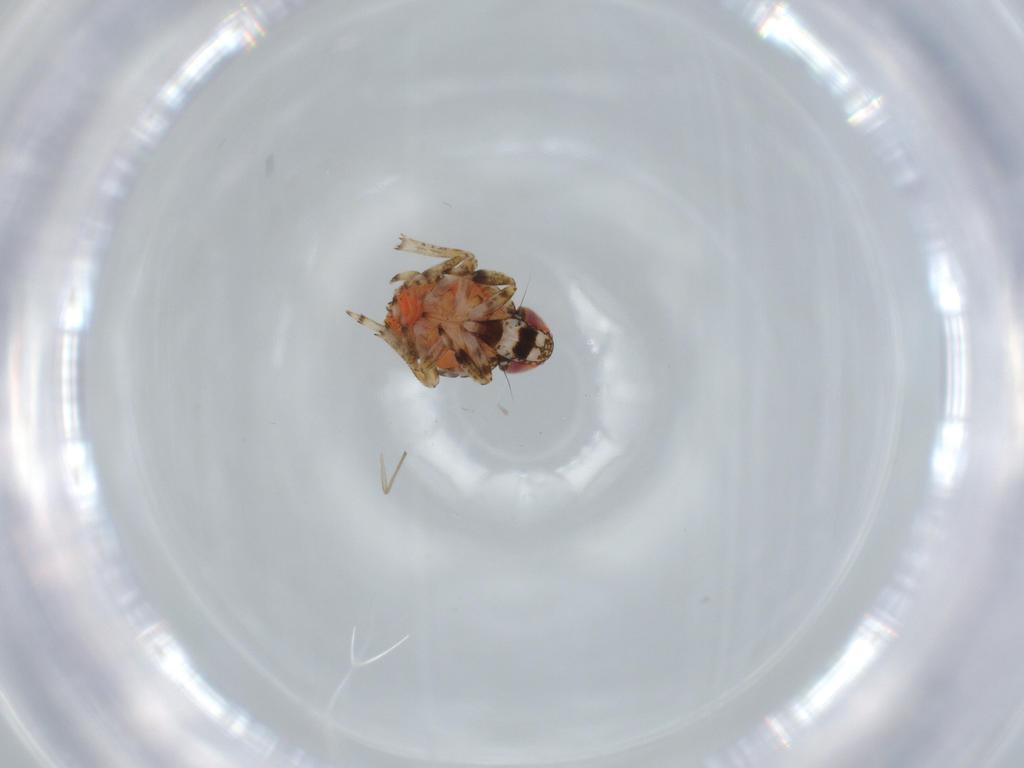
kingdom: Animalia
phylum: Arthropoda
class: Insecta
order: Hemiptera
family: Issidae
